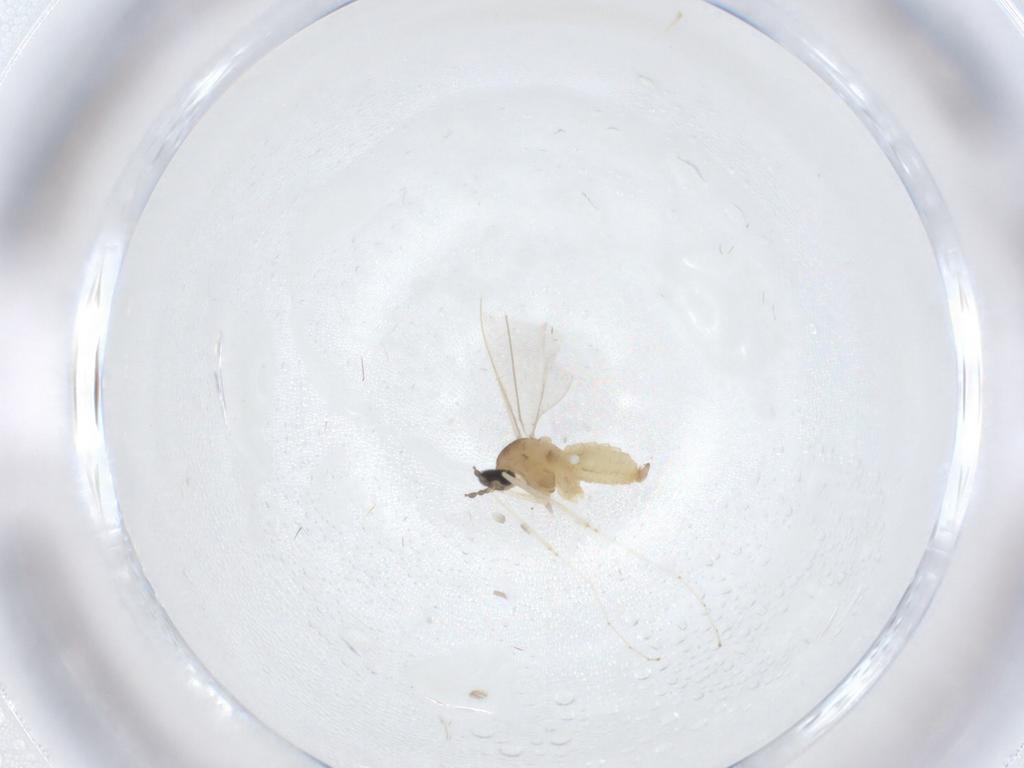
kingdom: Animalia
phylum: Arthropoda
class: Insecta
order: Diptera
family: Cecidomyiidae
